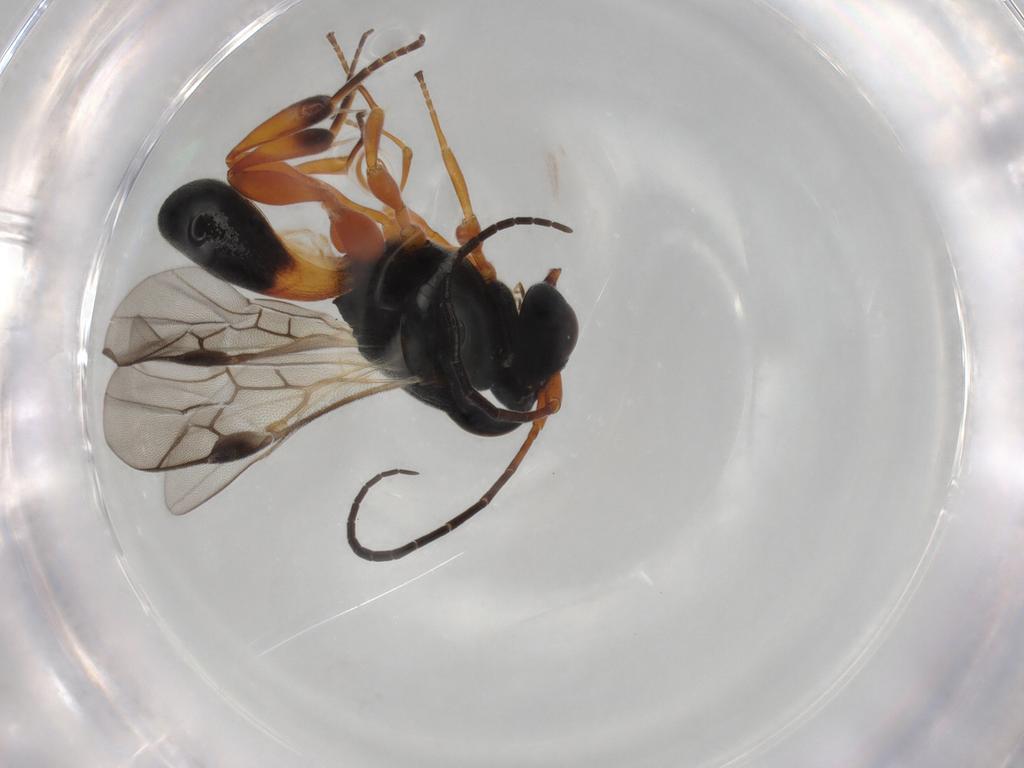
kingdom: Animalia
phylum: Arthropoda
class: Insecta
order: Hymenoptera
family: Braconidae
